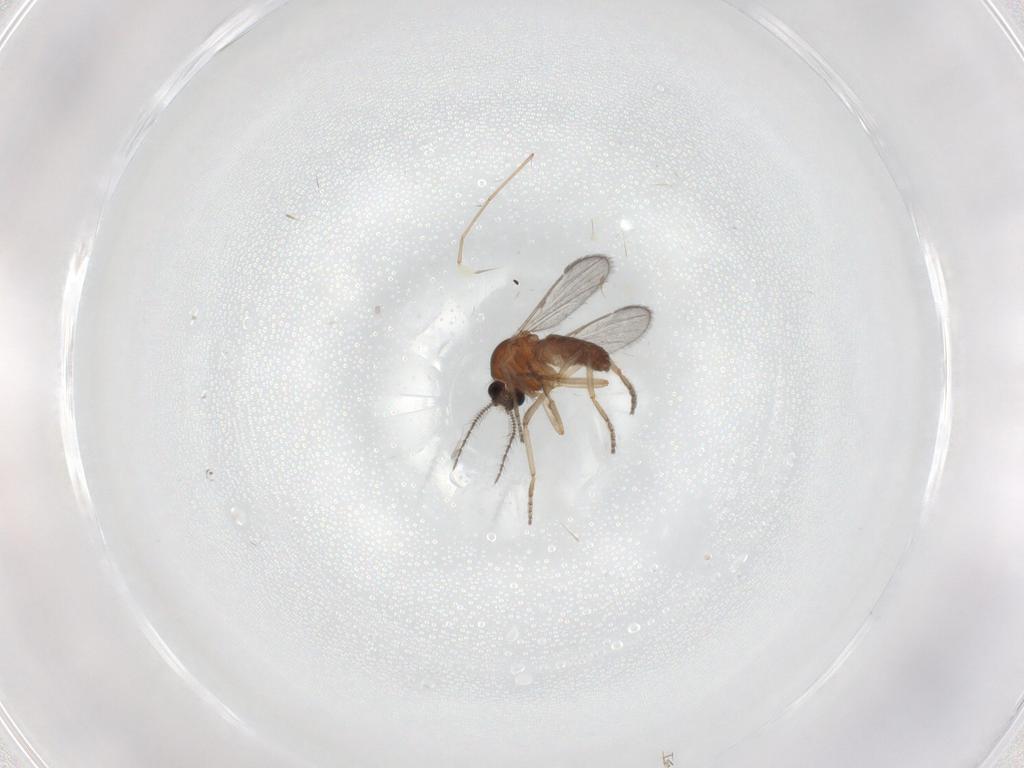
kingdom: Animalia
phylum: Arthropoda
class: Insecta
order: Diptera
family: Ceratopogonidae
